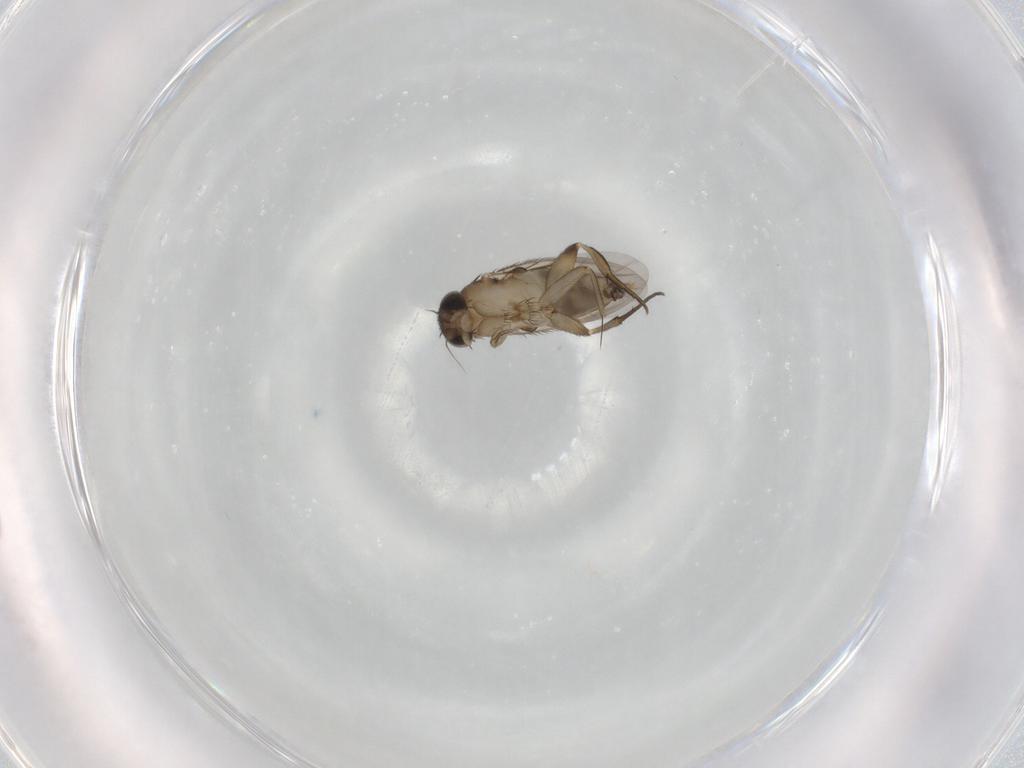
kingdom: Animalia
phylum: Arthropoda
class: Insecta
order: Diptera
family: Phoridae
